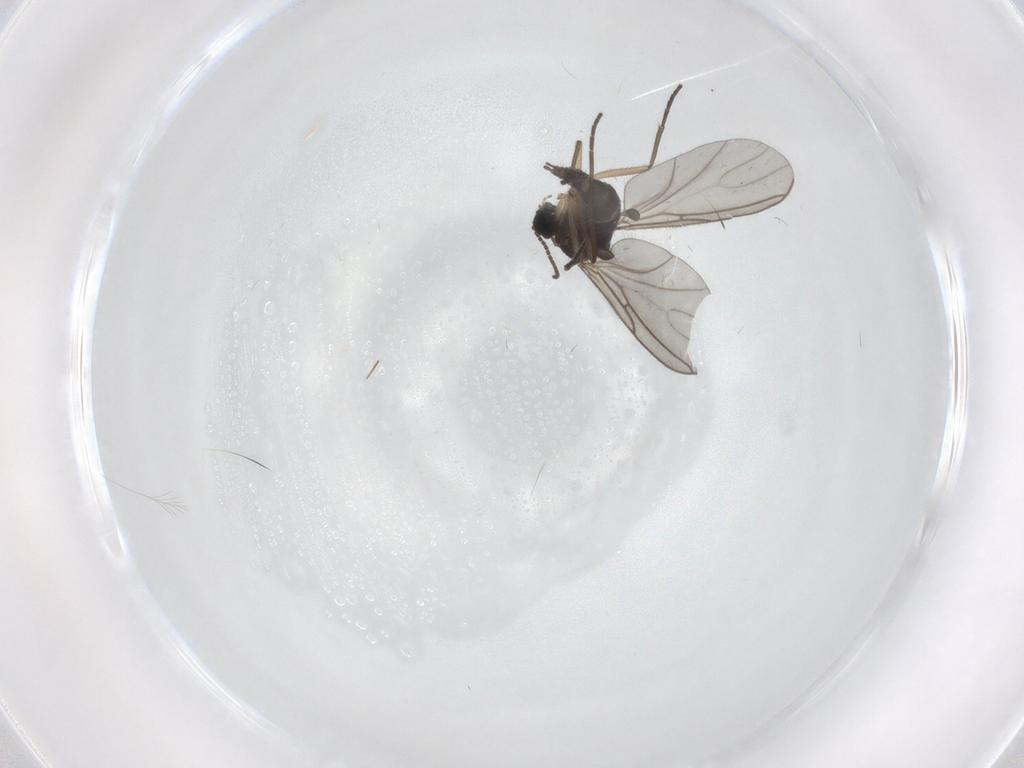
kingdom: Animalia
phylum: Arthropoda
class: Insecta
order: Diptera
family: Sciaridae
